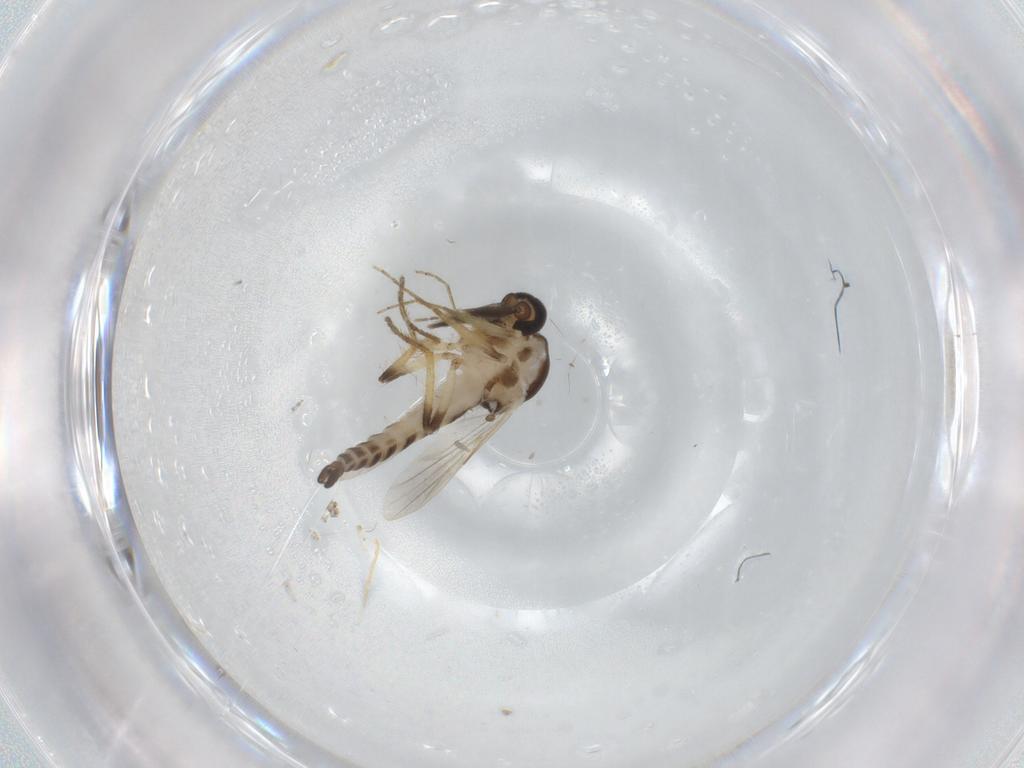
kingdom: Animalia
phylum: Arthropoda
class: Insecta
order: Diptera
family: Ceratopogonidae
